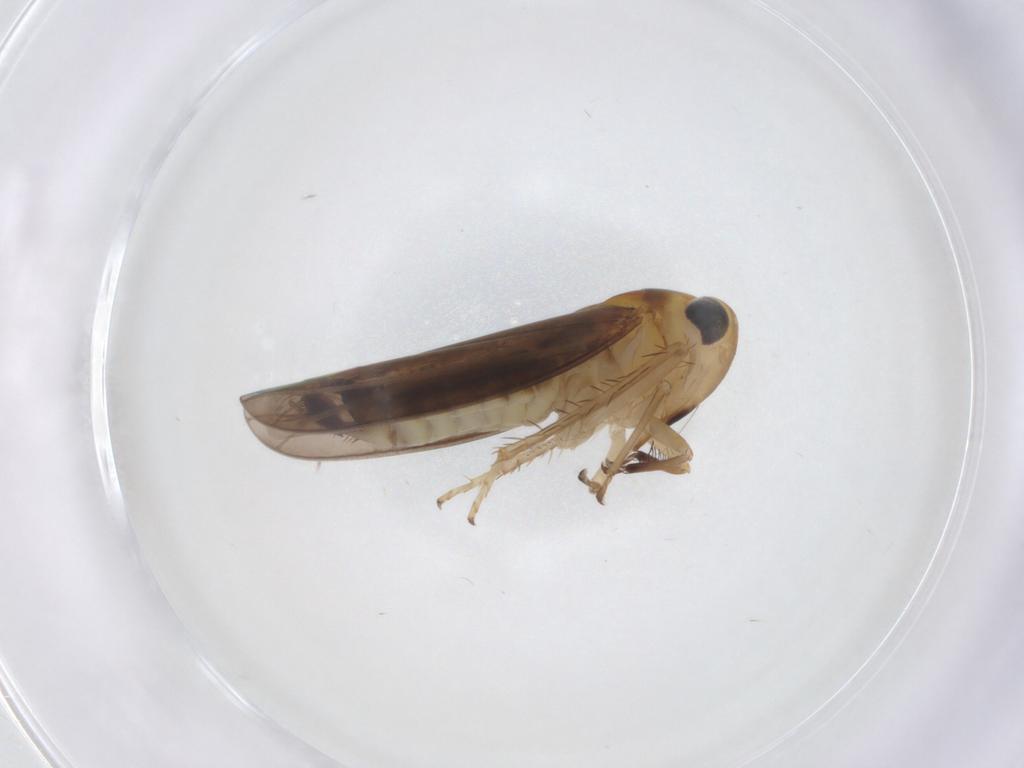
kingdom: Animalia
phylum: Arthropoda
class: Insecta
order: Hemiptera
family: Cicadellidae
